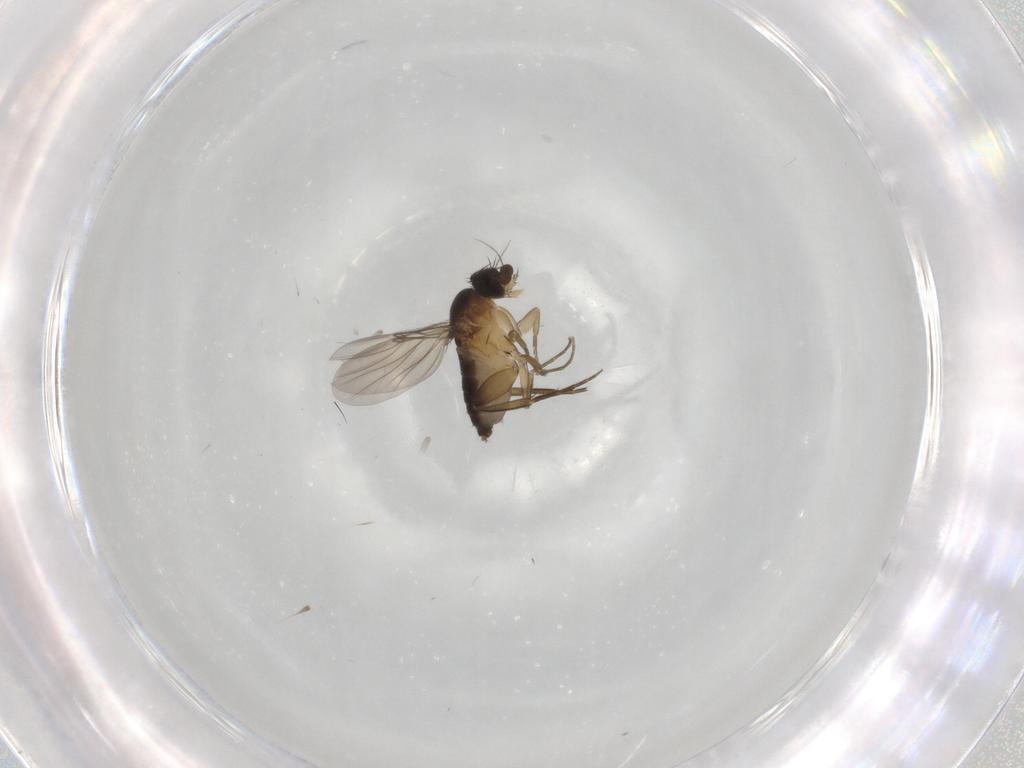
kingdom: Animalia
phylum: Arthropoda
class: Insecta
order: Diptera
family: Phoridae
